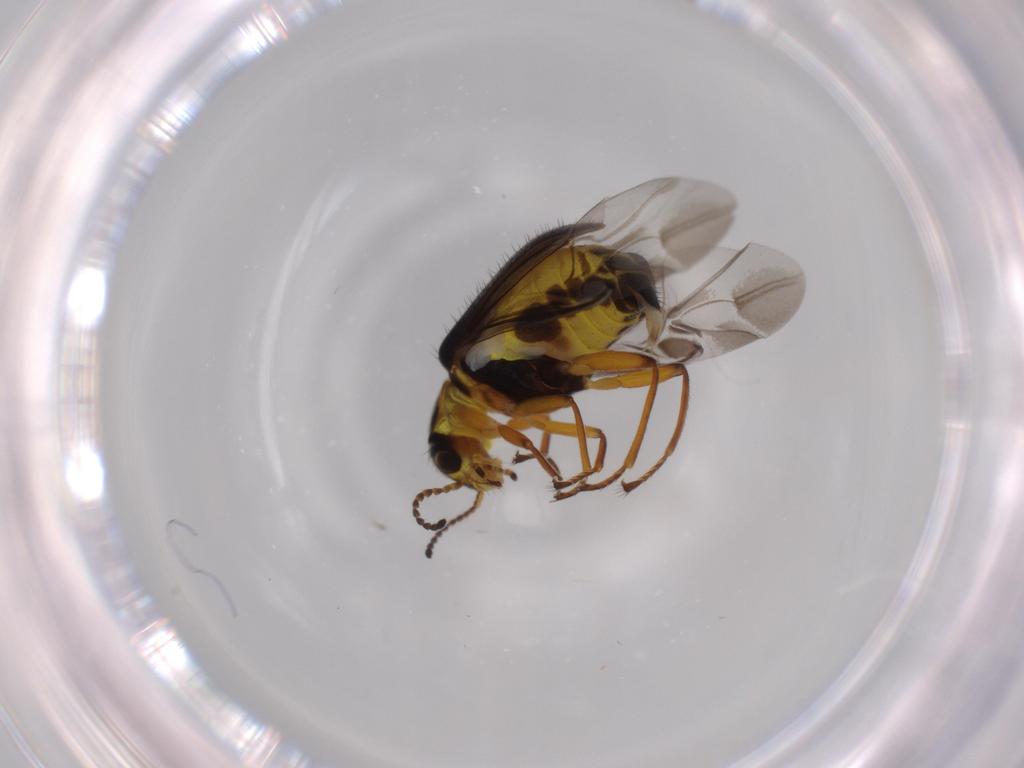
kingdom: Animalia
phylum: Arthropoda
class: Insecta
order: Coleoptera
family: Melyridae
